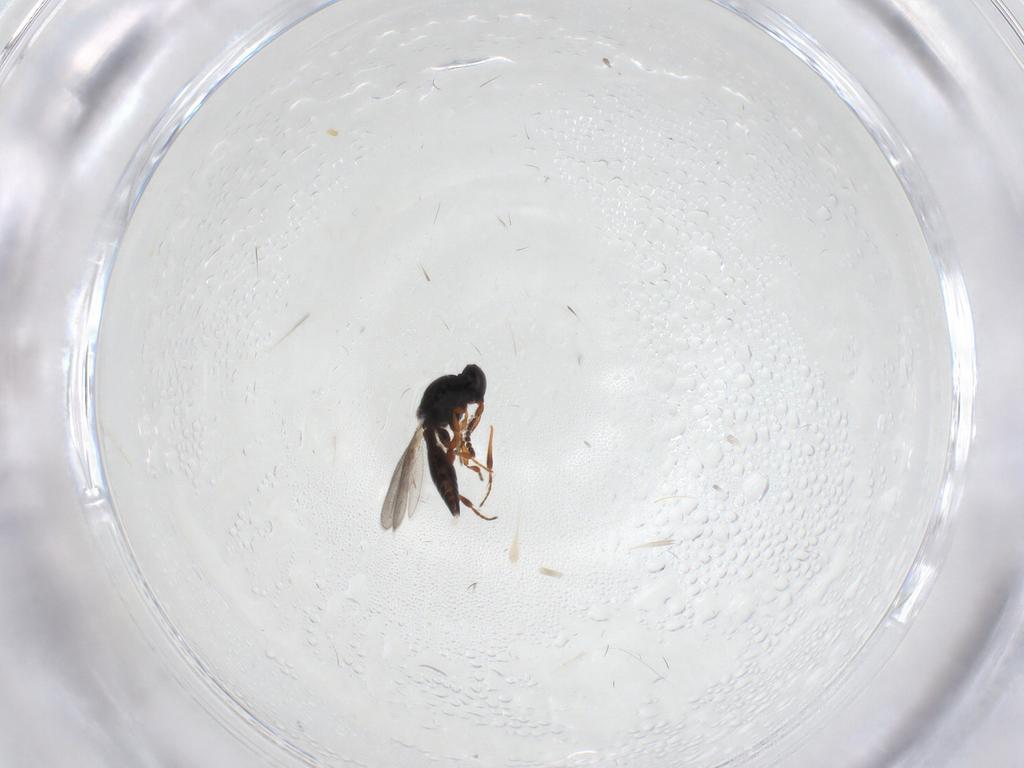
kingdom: Animalia
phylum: Arthropoda
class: Insecta
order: Hymenoptera
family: Platygastridae
